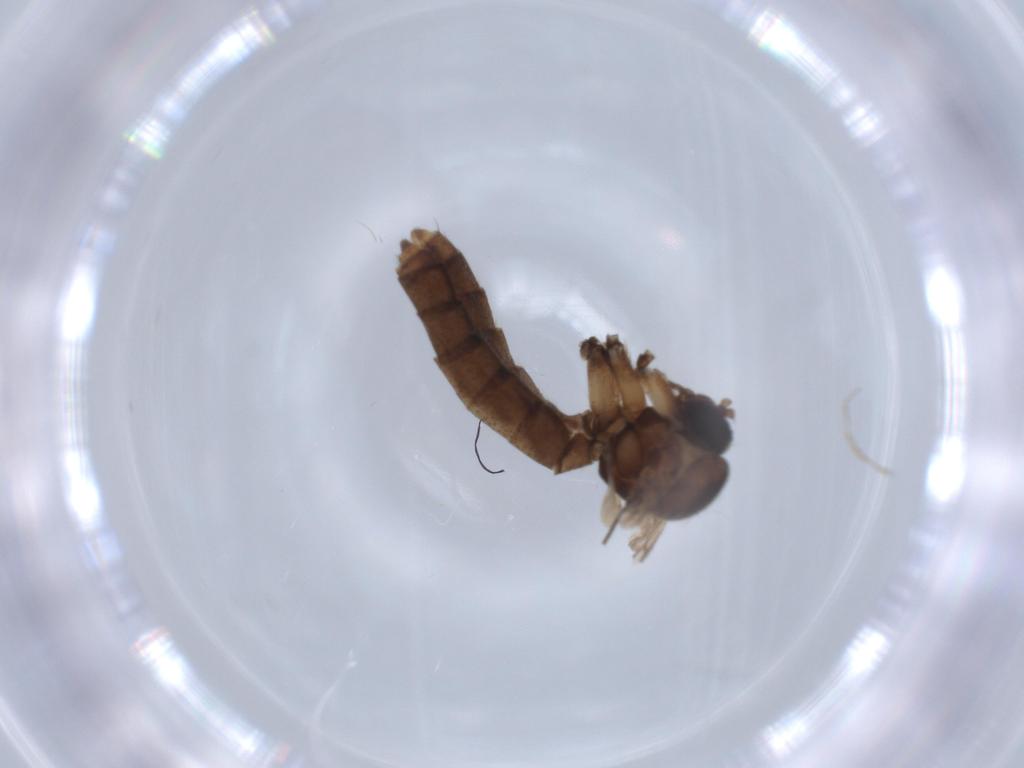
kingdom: Animalia
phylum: Arthropoda
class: Insecta
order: Diptera
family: Mycetophilidae
